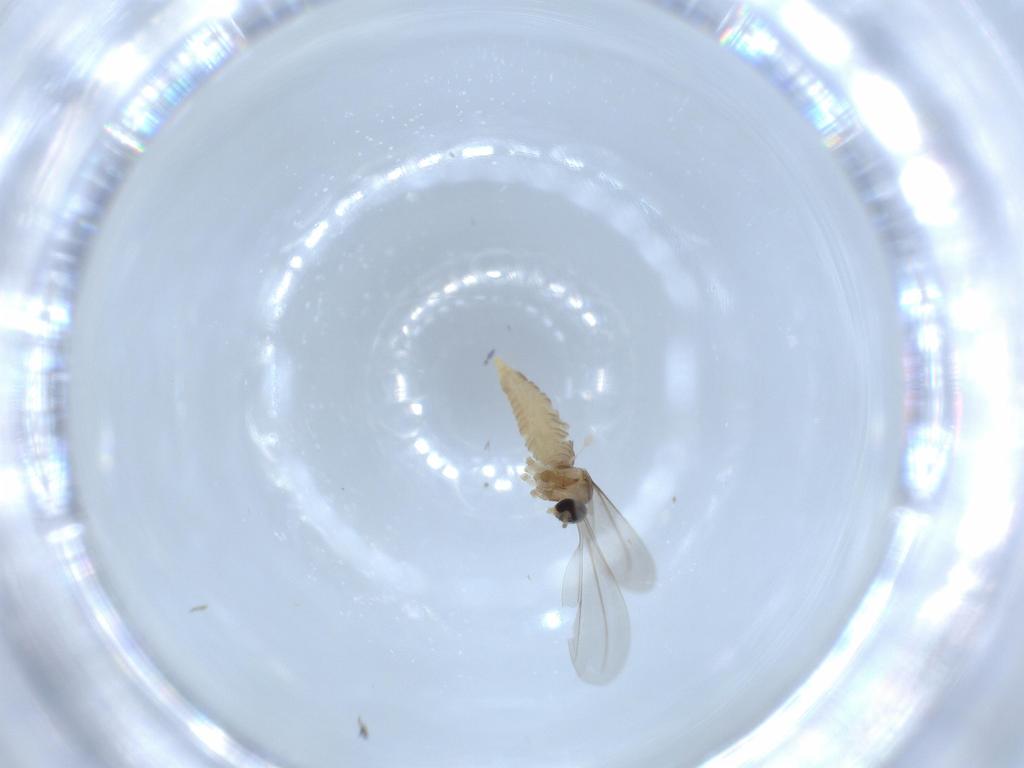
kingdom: Animalia
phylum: Arthropoda
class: Insecta
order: Diptera
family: Cecidomyiidae
